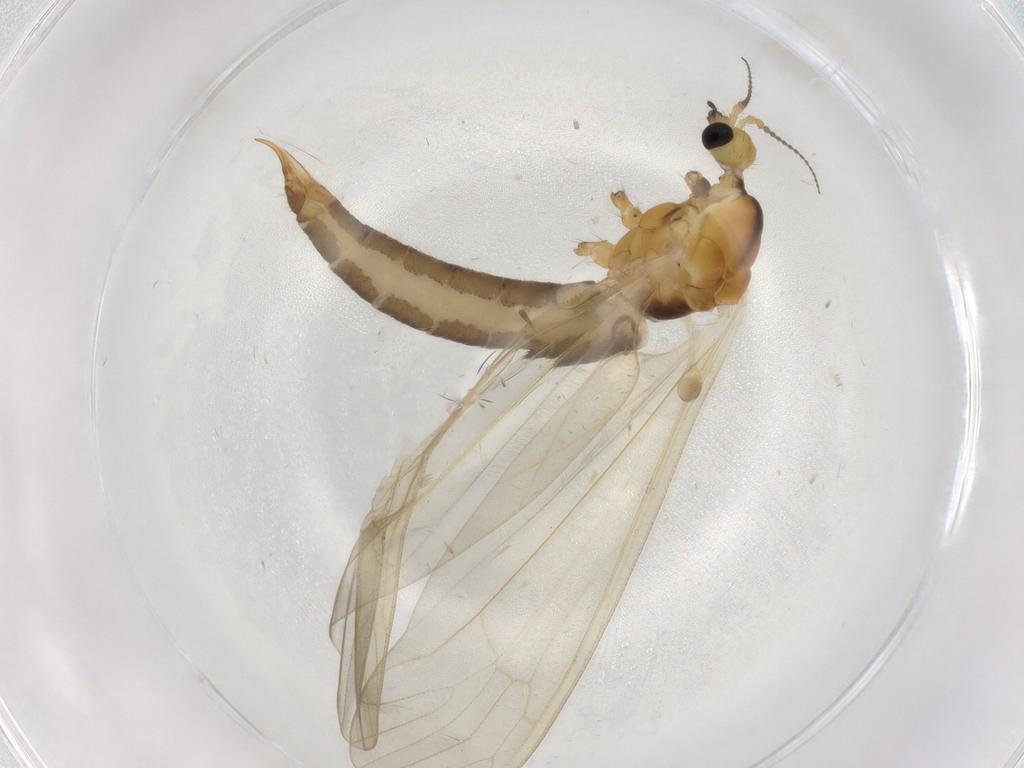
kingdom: Animalia
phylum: Arthropoda
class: Insecta
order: Diptera
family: Limoniidae
